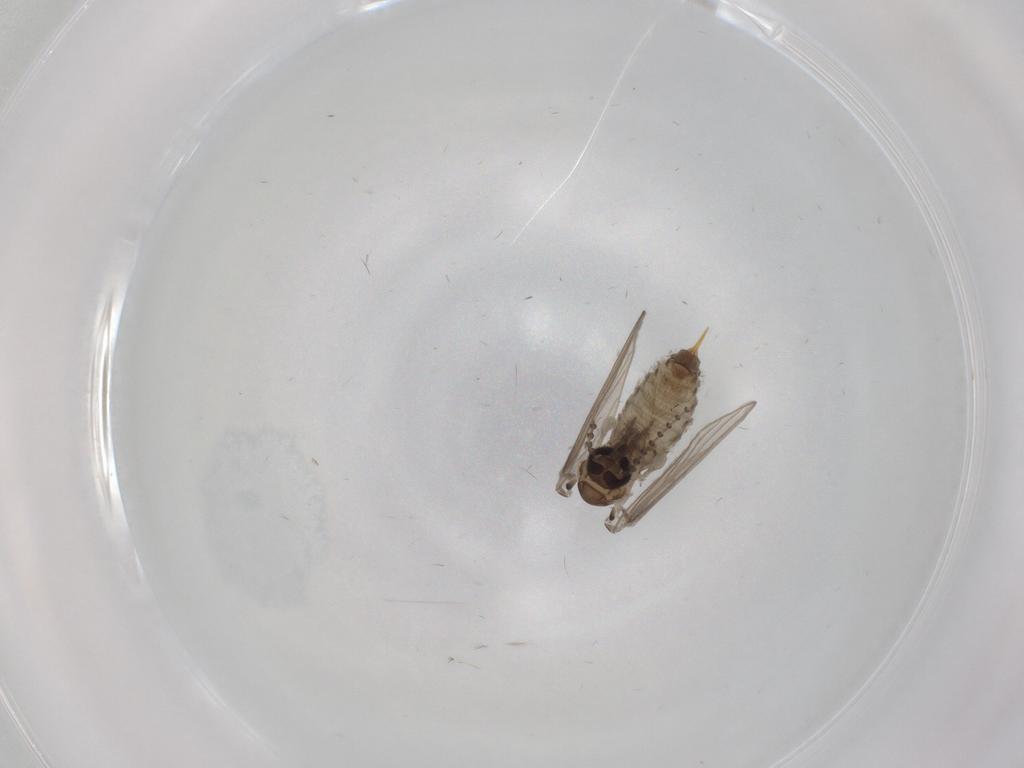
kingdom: Animalia
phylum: Arthropoda
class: Insecta
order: Diptera
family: Psychodidae
